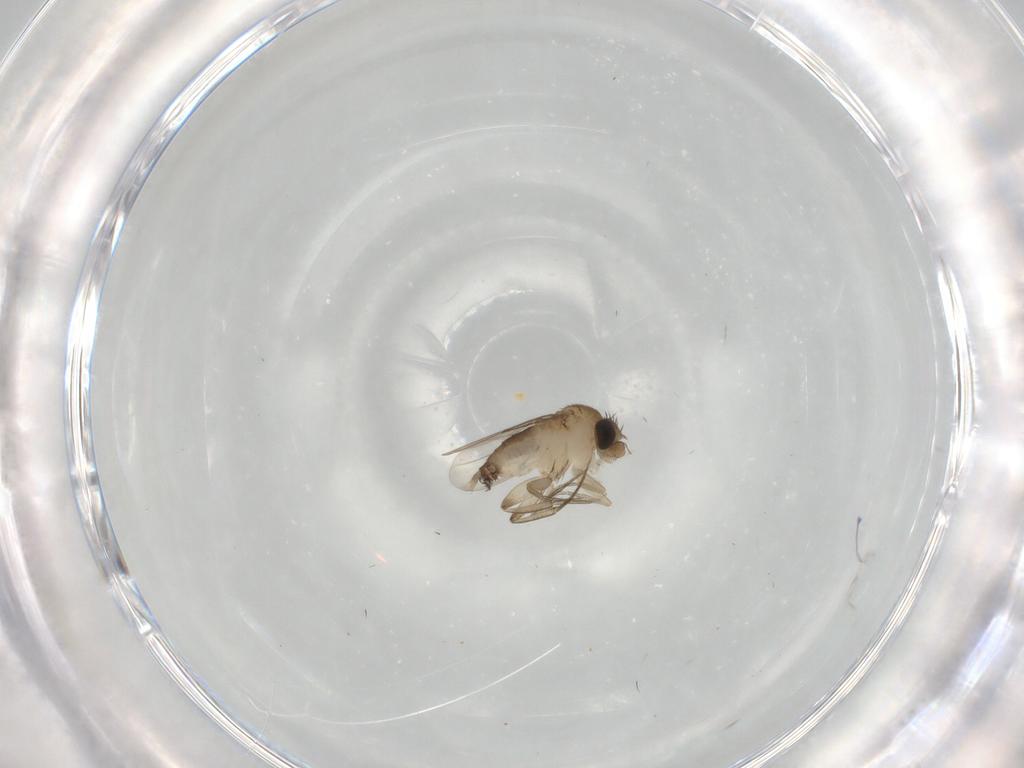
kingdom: Animalia
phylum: Arthropoda
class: Insecta
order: Diptera
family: Phoridae
